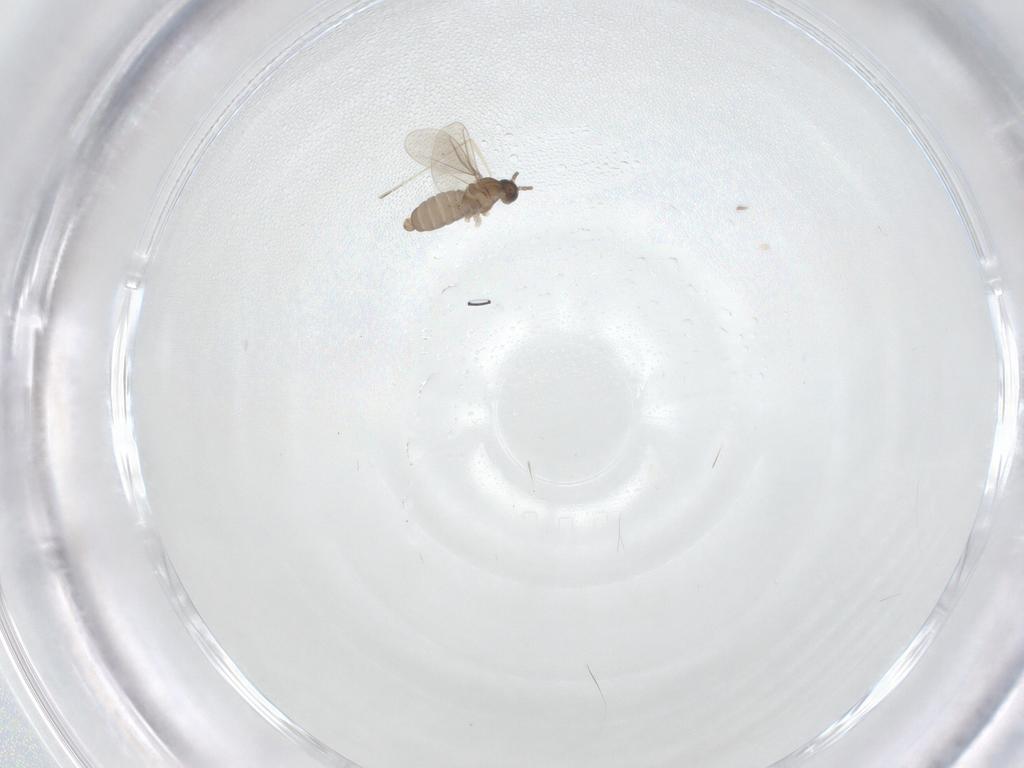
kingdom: Animalia
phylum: Arthropoda
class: Insecta
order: Diptera
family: Cecidomyiidae
